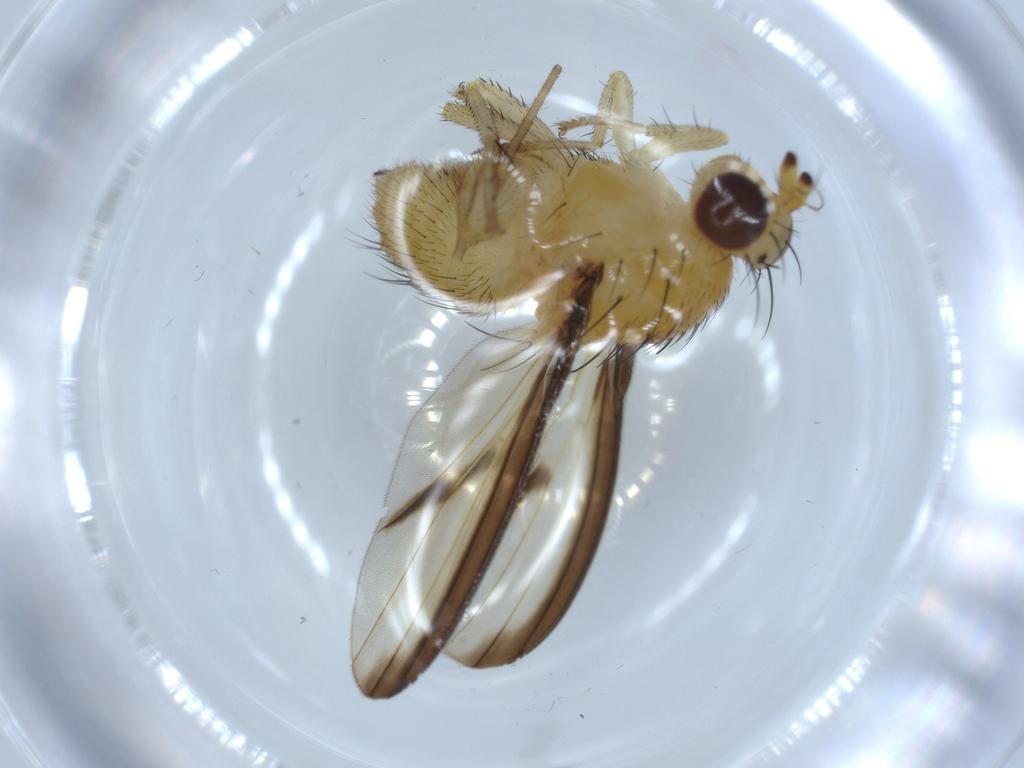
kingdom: Animalia
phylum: Arthropoda
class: Insecta
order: Diptera
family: Lauxaniidae
